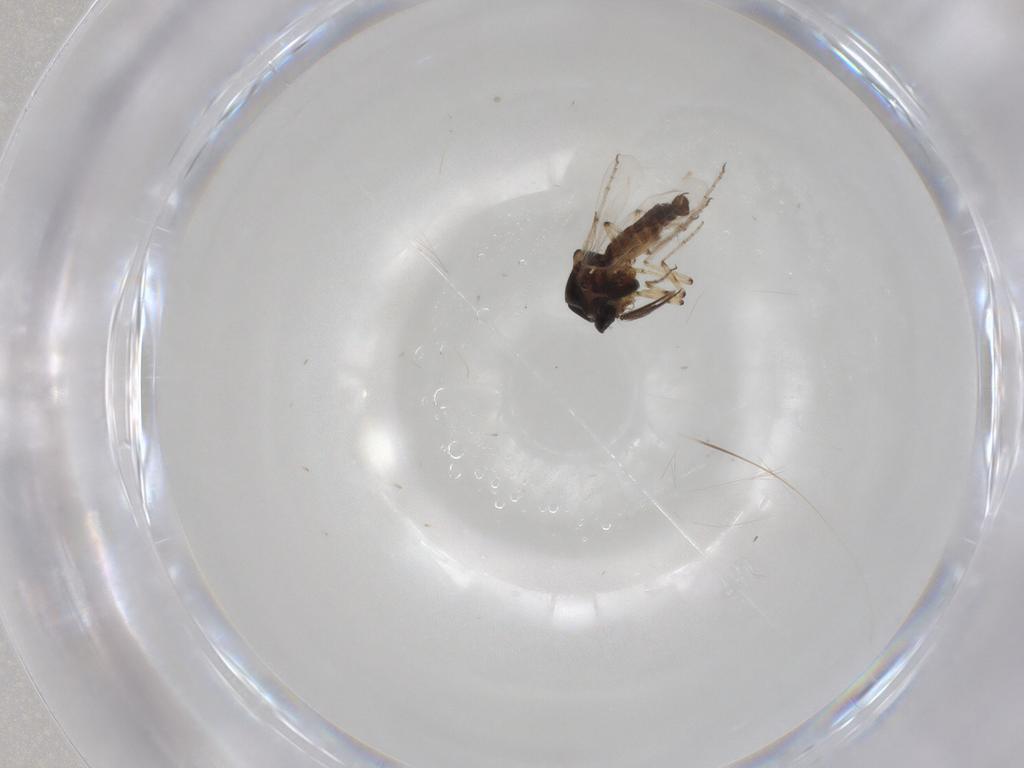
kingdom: Animalia
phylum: Arthropoda
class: Insecta
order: Diptera
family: Ceratopogonidae
